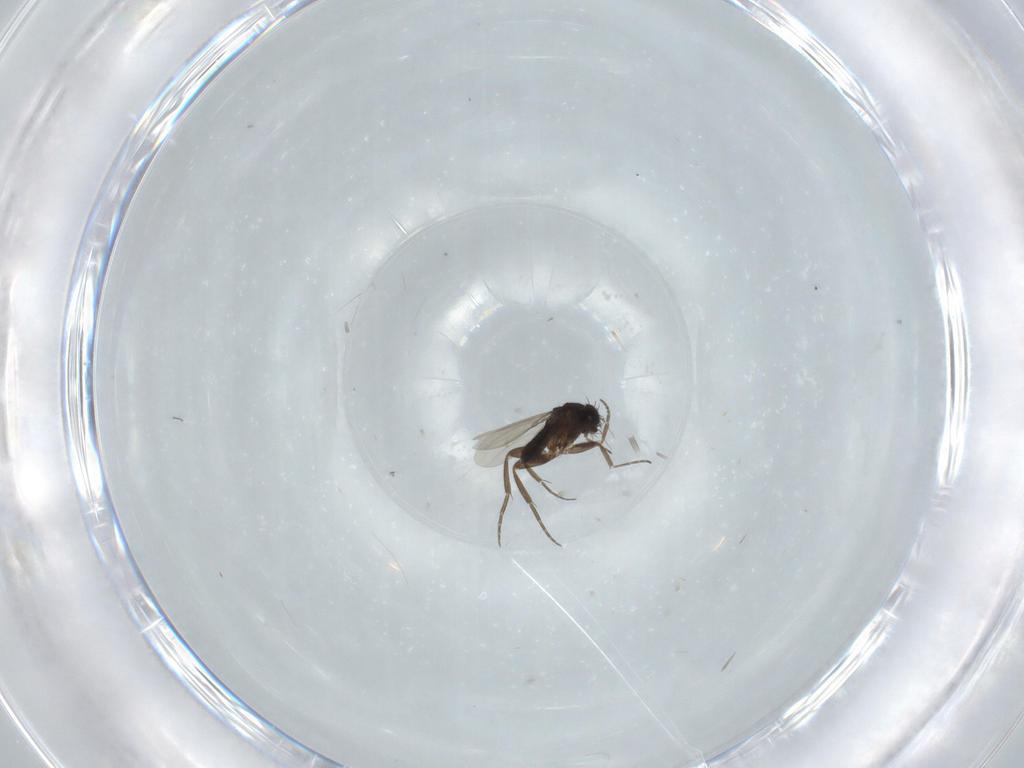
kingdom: Animalia
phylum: Arthropoda
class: Insecta
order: Diptera
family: Phoridae
